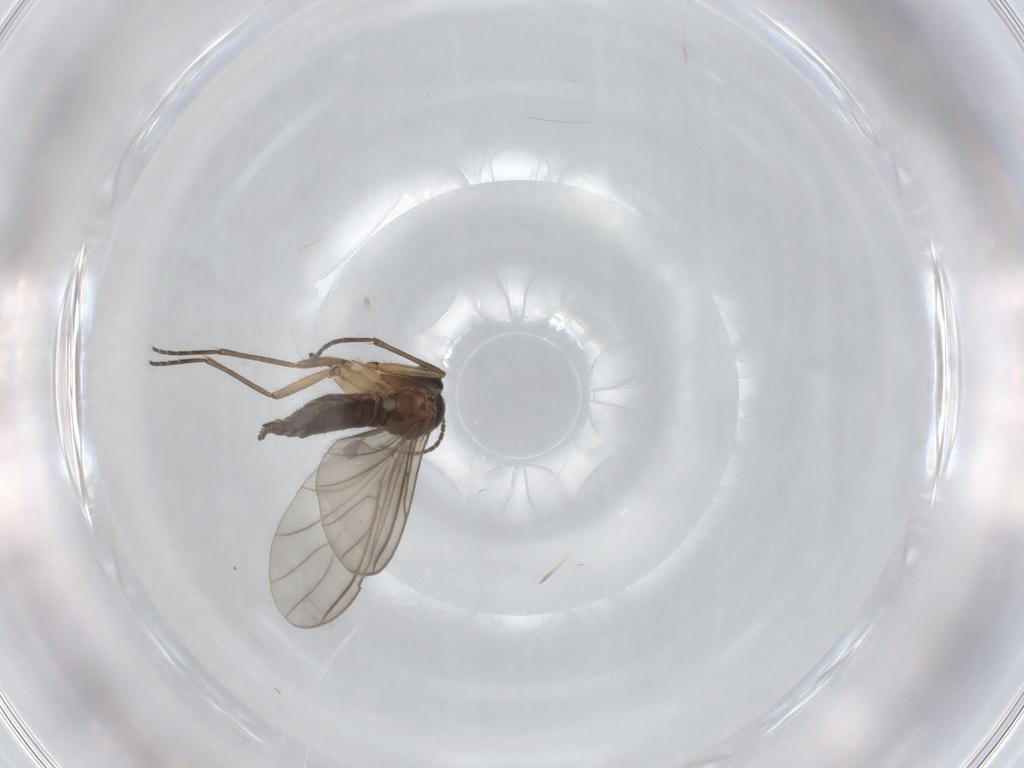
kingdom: Animalia
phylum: Arthropoda
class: Insecta
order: Diptera
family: Sciaridae
